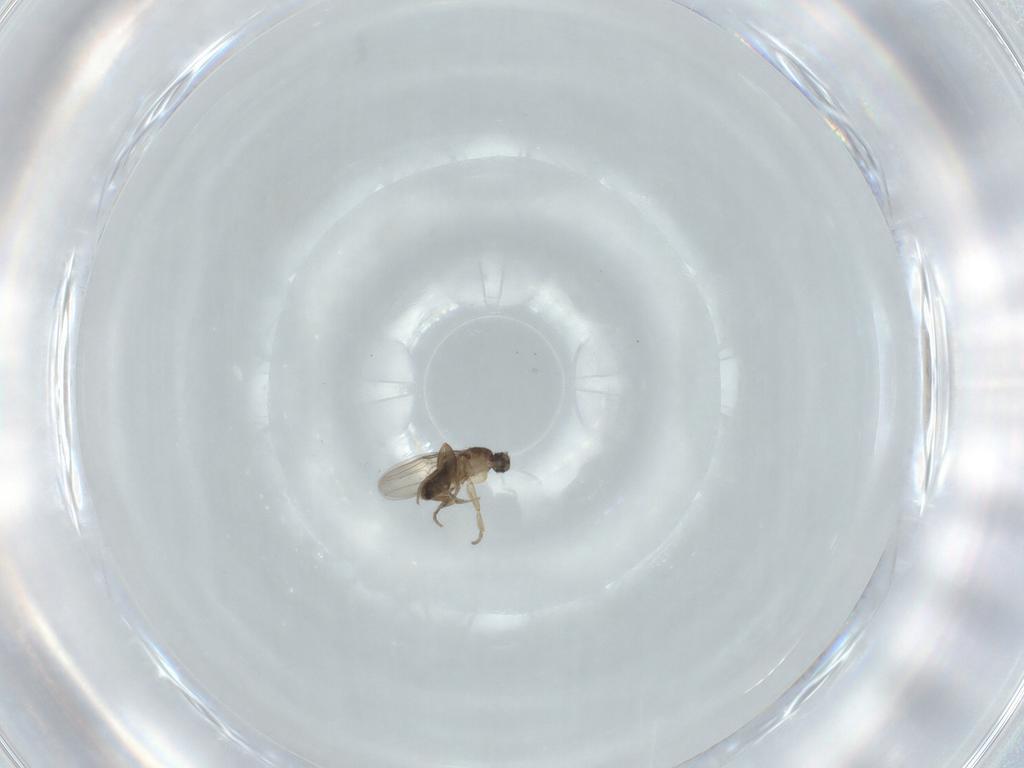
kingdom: Animalia
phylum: Arthropoda
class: Insecta
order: Diptera
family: Phoridae
